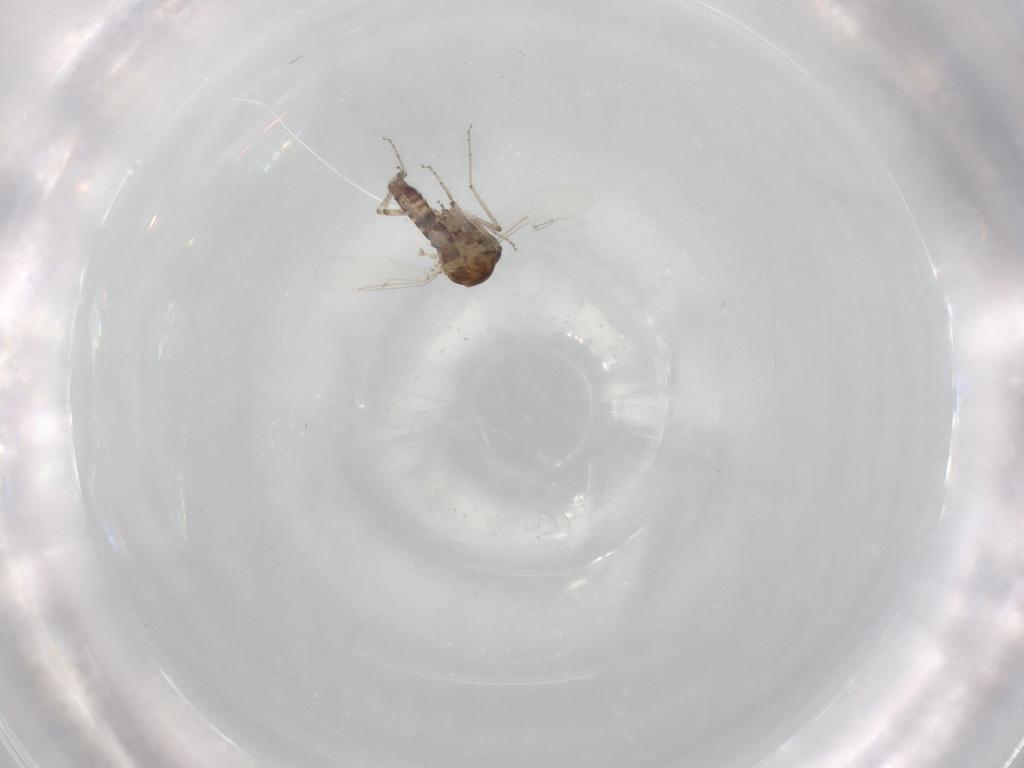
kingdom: Animalia
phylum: Arthropoda
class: Insecta
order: Diptera
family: Ceratopogonidae
